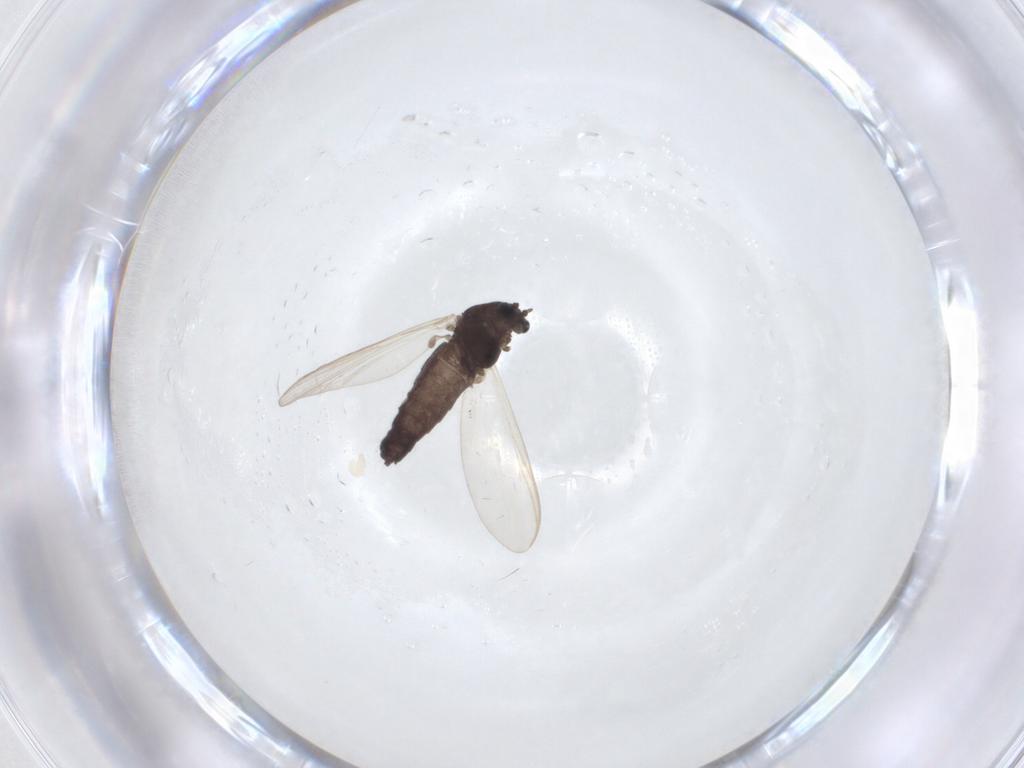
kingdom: Animalia
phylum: Arthropoda
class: Insecta
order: Diptera
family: Chironomidae
